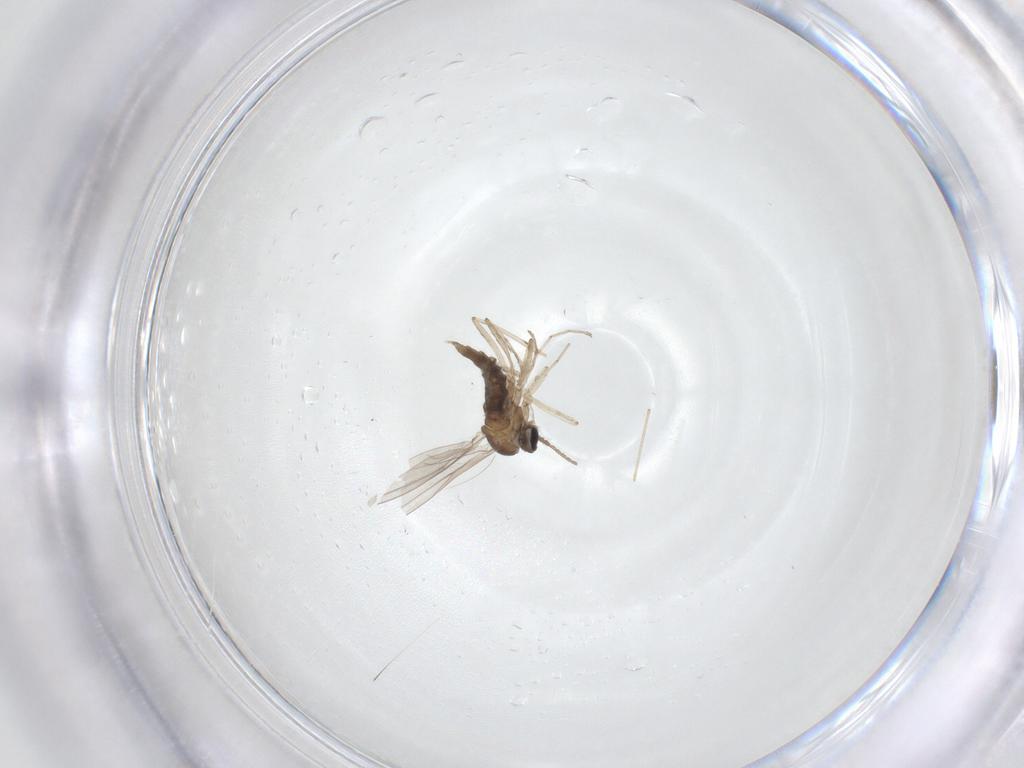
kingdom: Animalia
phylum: Arthropoda
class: Insecta
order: Diptera
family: Cecidomyiidae
